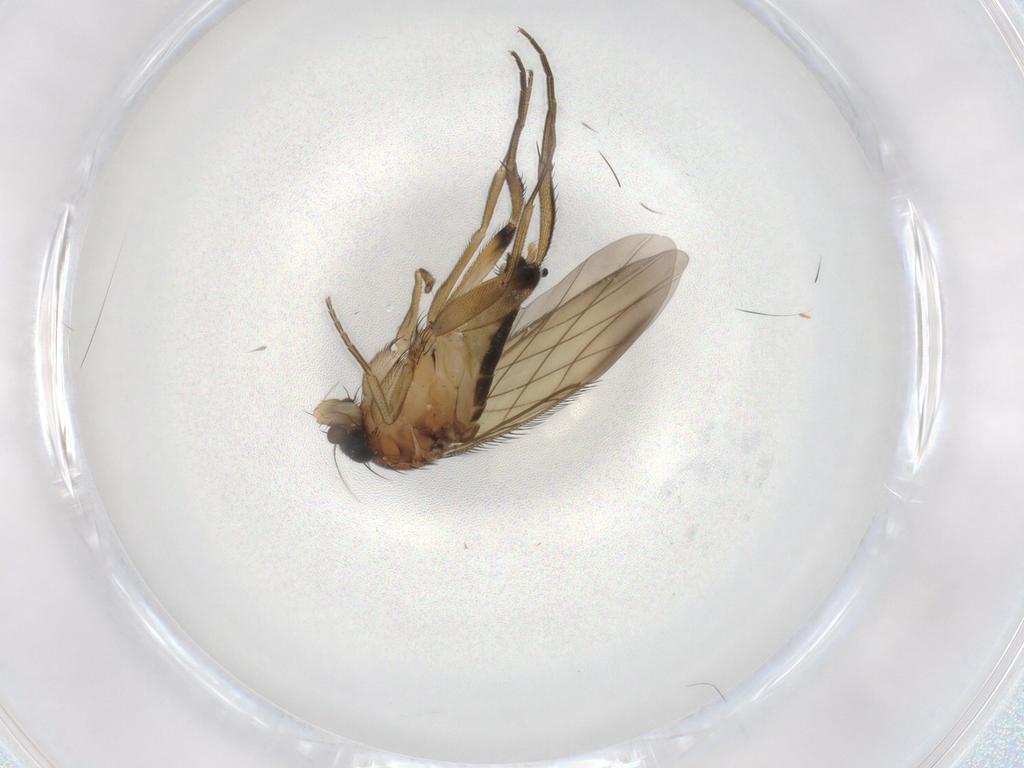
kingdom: Animalia
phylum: Arthropoda
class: Insecta
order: Diptera
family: Phoridae
